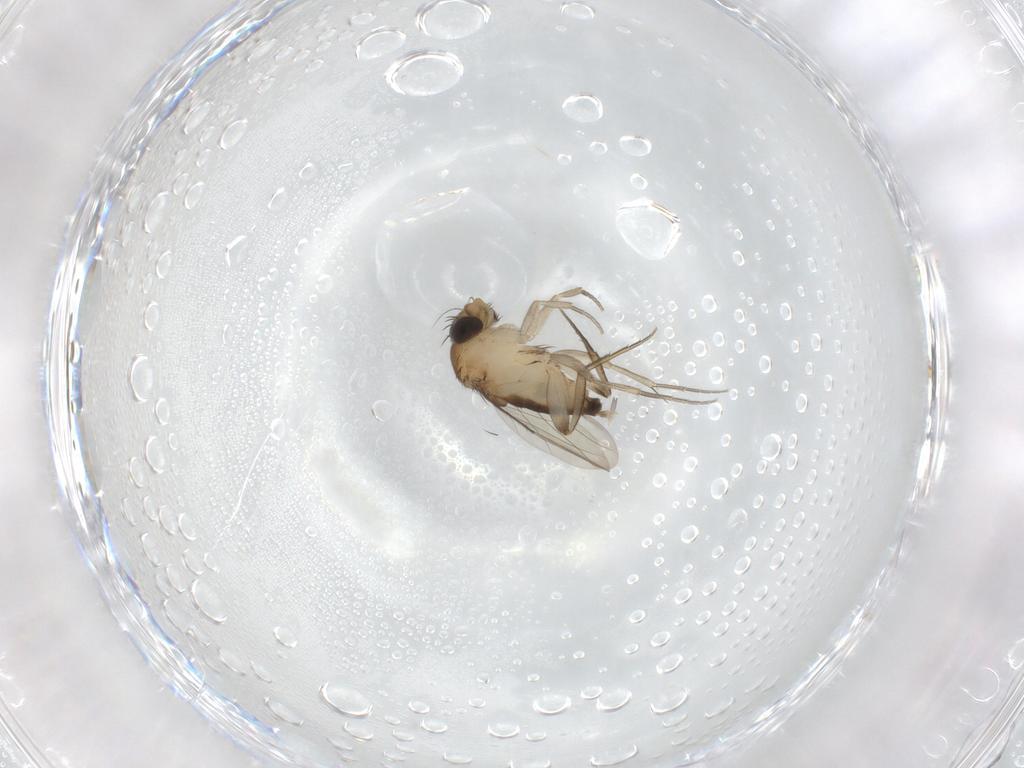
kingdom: Animalia
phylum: Arthropoda
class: Insecta
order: Diptera
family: Phoridae
